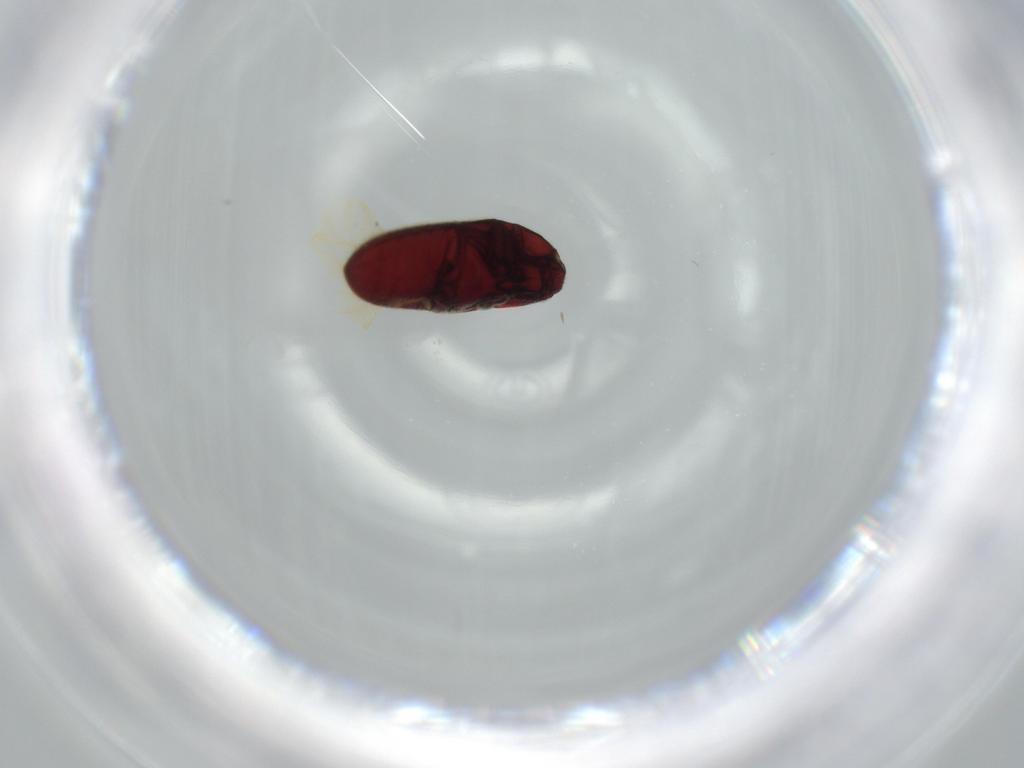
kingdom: Animalia
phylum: Arthropoda
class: Insecta
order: Coleoptera
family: Throscidae
